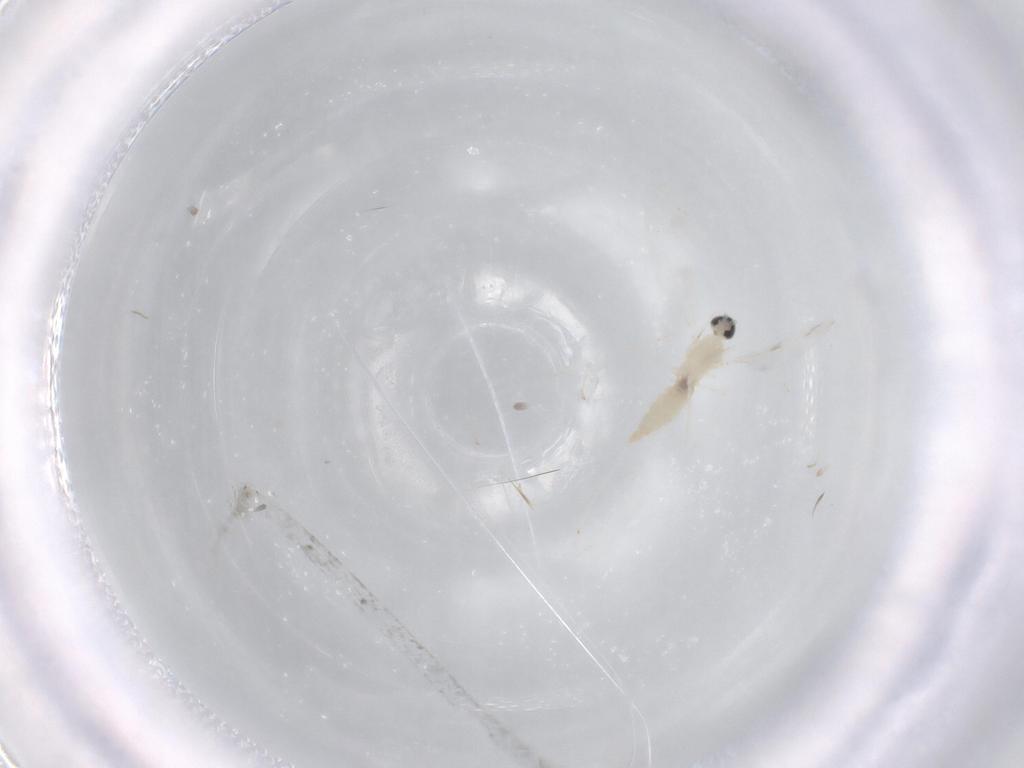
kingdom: Animalia
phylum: Arthropoda
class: Insecta
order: Diptera
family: Cecidomyiidae
